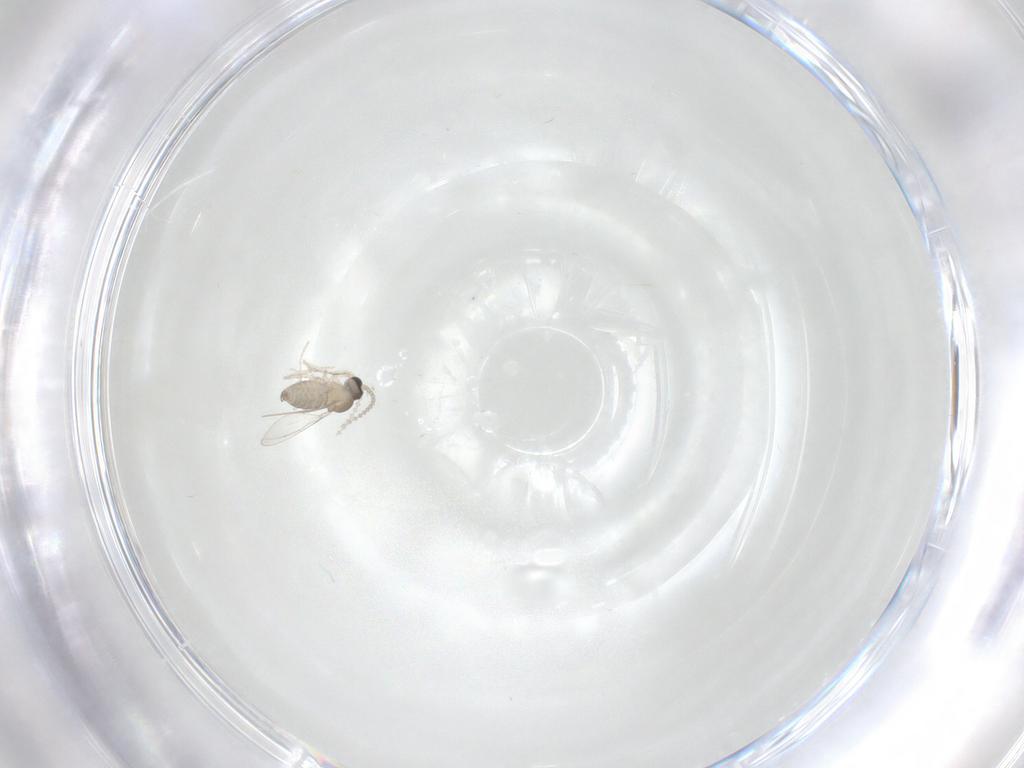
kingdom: Animalia
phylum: Arthropoda
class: Insecta
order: Diptera
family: Cecidomyiidae
